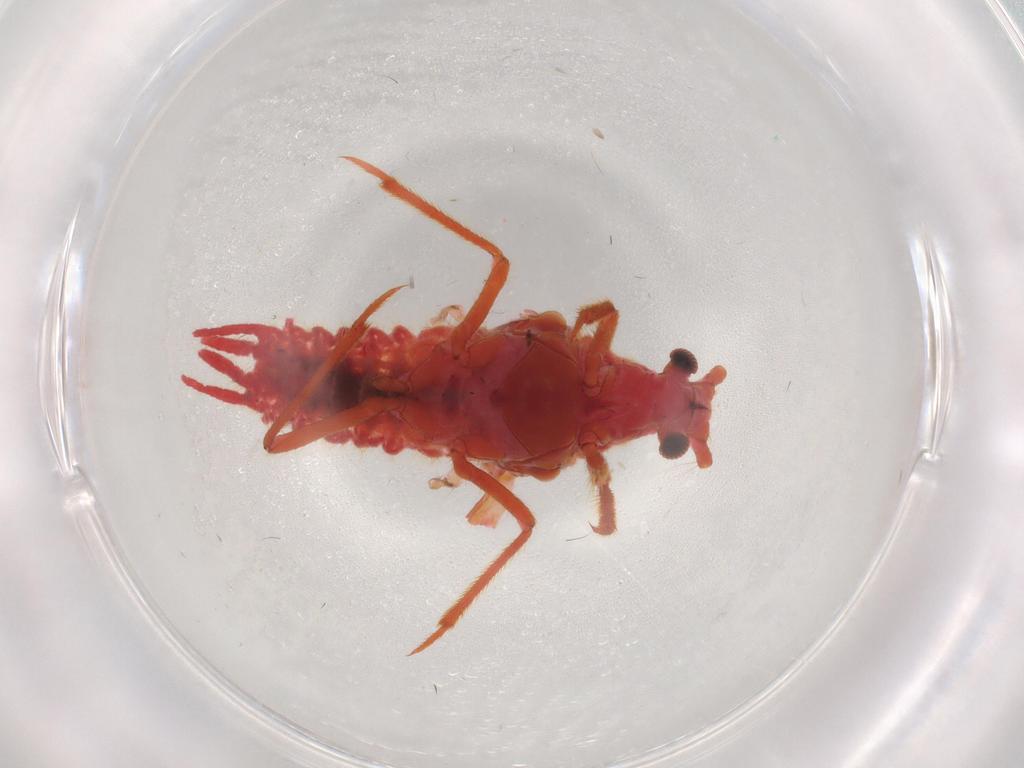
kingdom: Animalia
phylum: Arthropoda
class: Insecta
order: Hemiptera
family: Coccoidea_incertae_sedis
